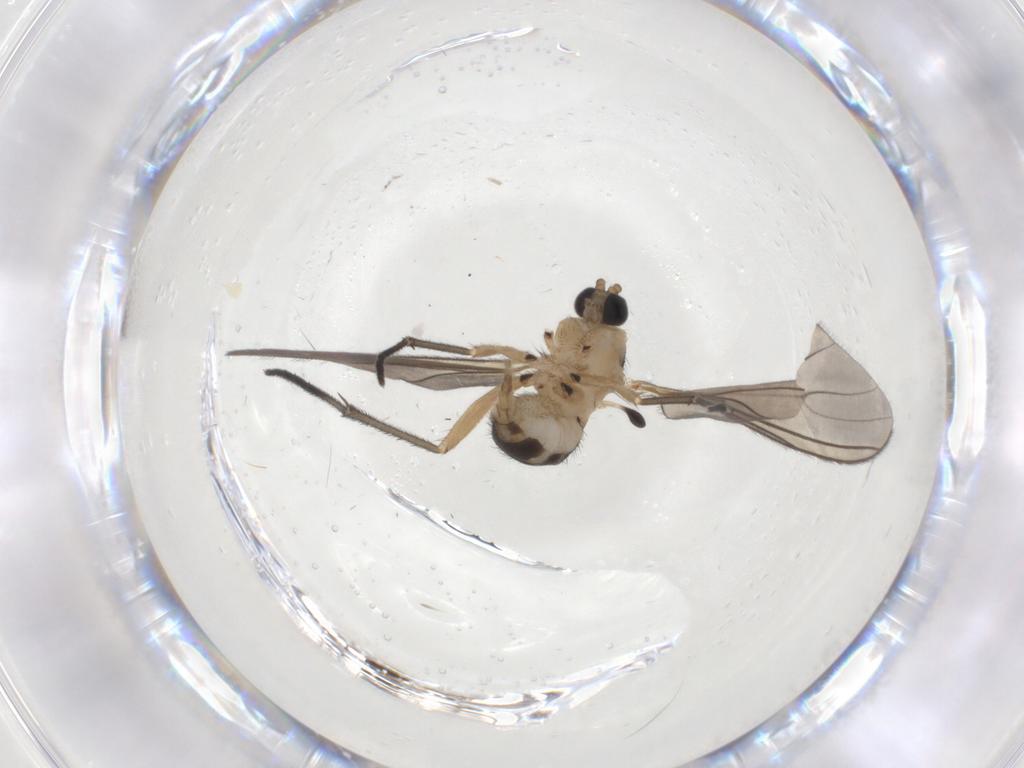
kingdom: Animalia
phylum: Arthropoda
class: Insecta
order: Diptera
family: Sciaridae
